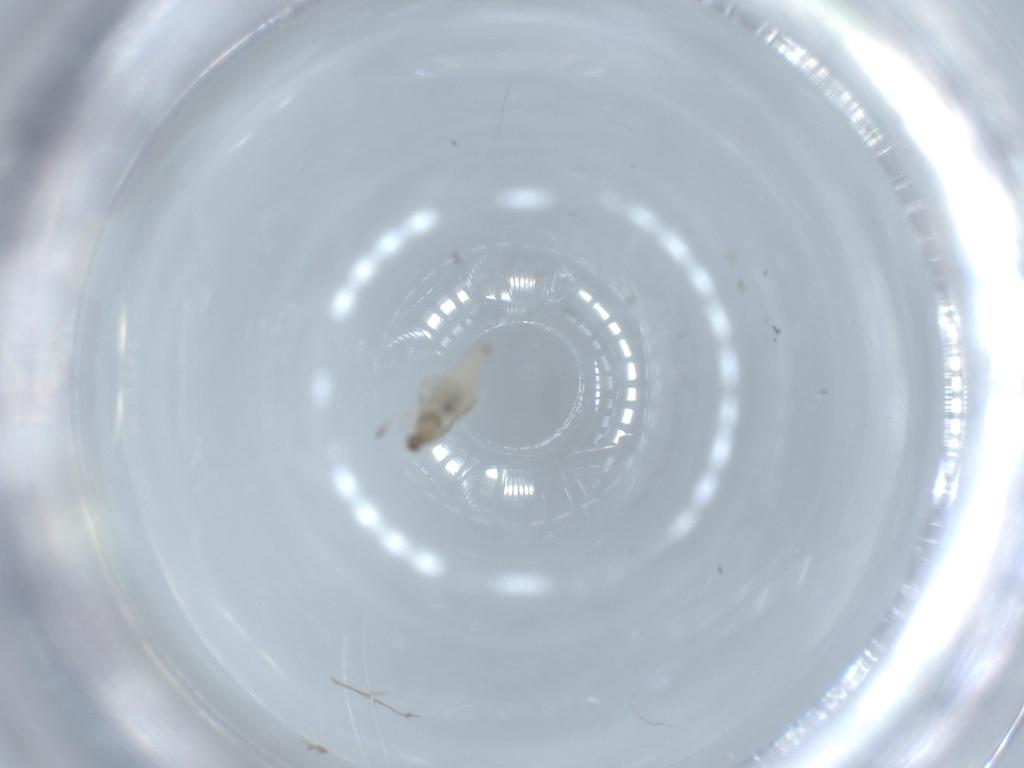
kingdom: Animalia
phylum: Arthropoda
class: Insecta
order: Diptera
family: Cecidomyiidae
